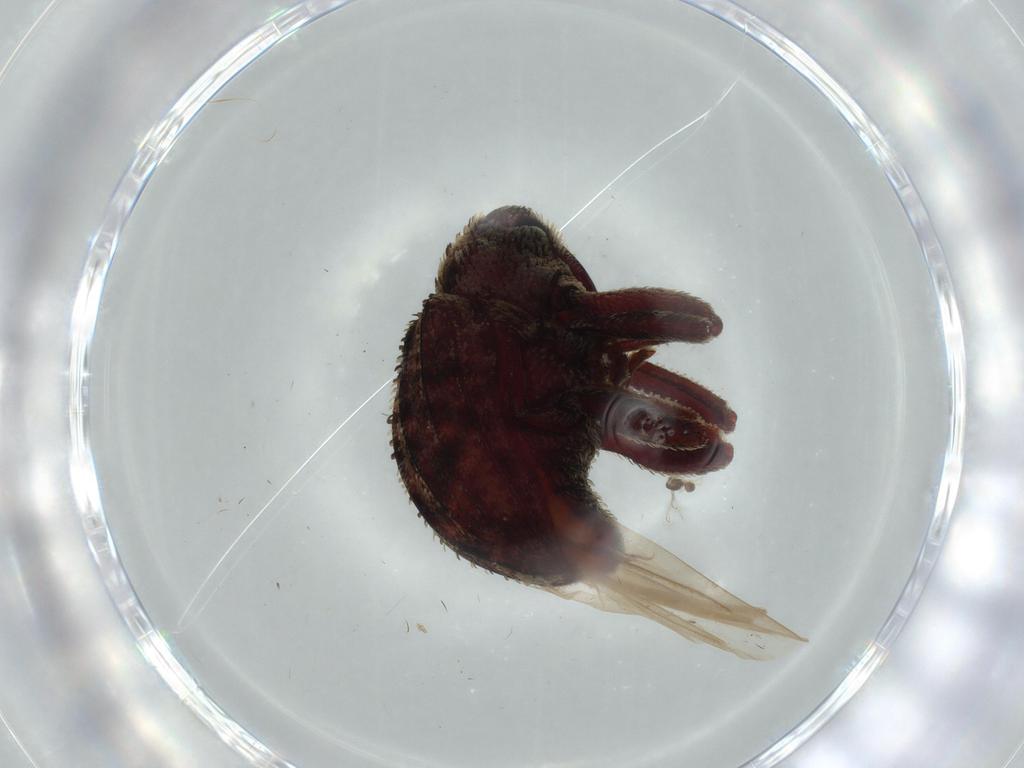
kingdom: Animalia
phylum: Arthropoda
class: Insecta
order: Coleoptera
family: Curculionidae
